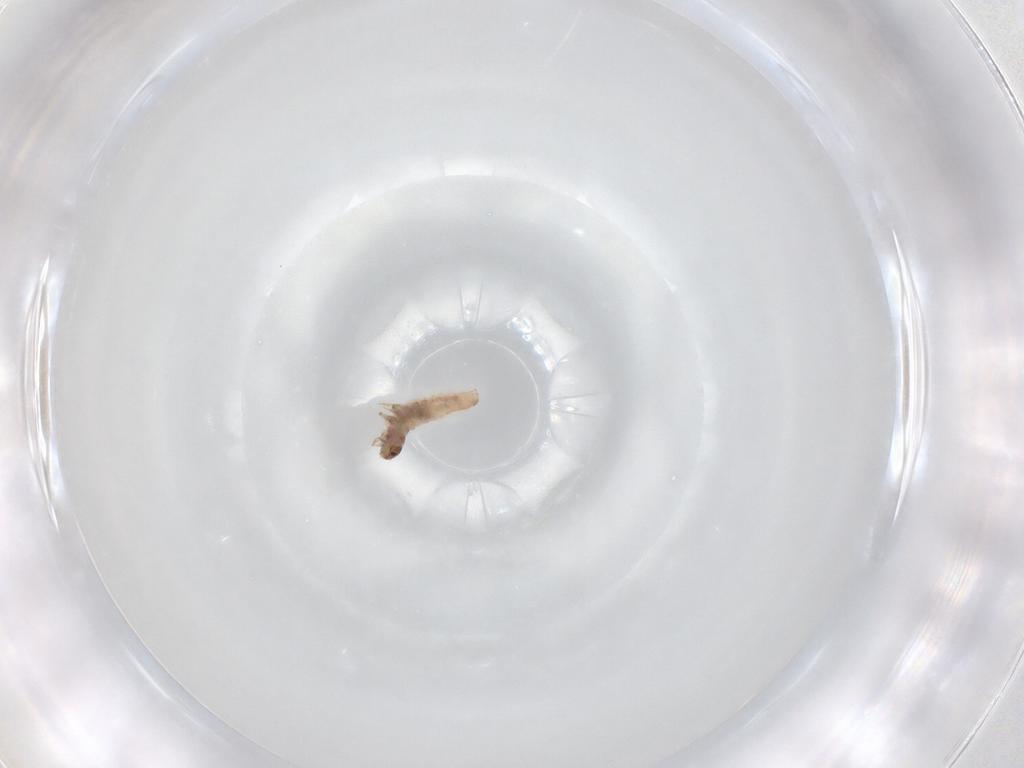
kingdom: Animalia
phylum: Arthropoda
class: Insecta
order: Lepidoptera
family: Psychidae
